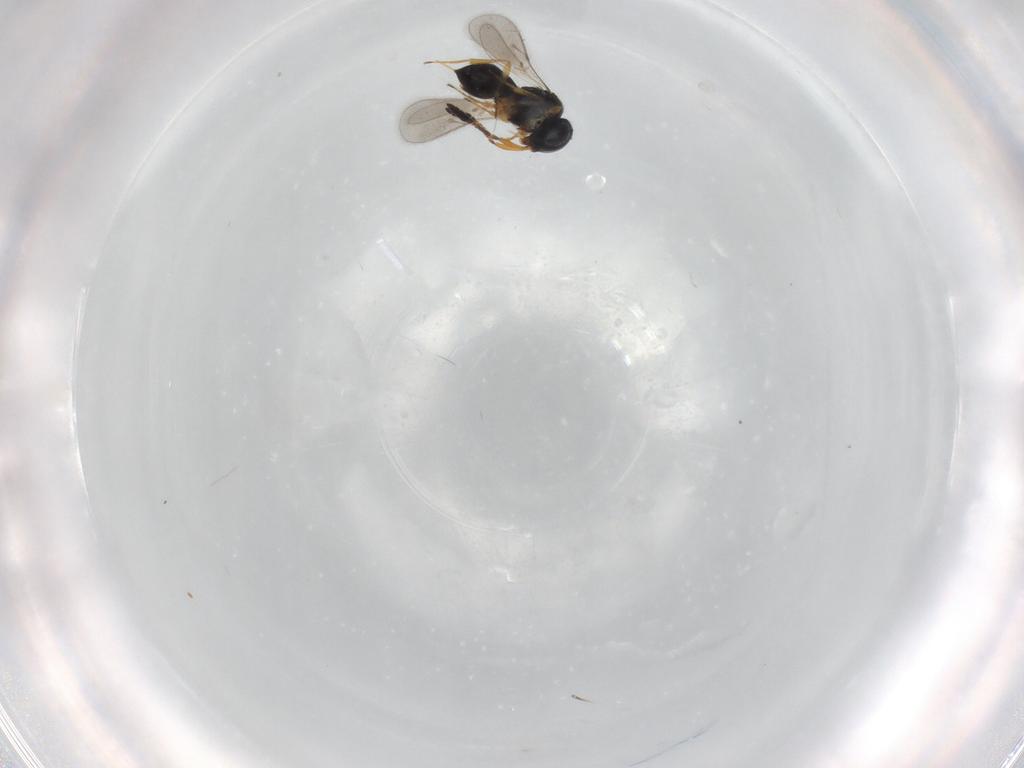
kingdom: Animalia
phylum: Arthropoda
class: Insecta
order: Hymenoptera
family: Scelionidae
